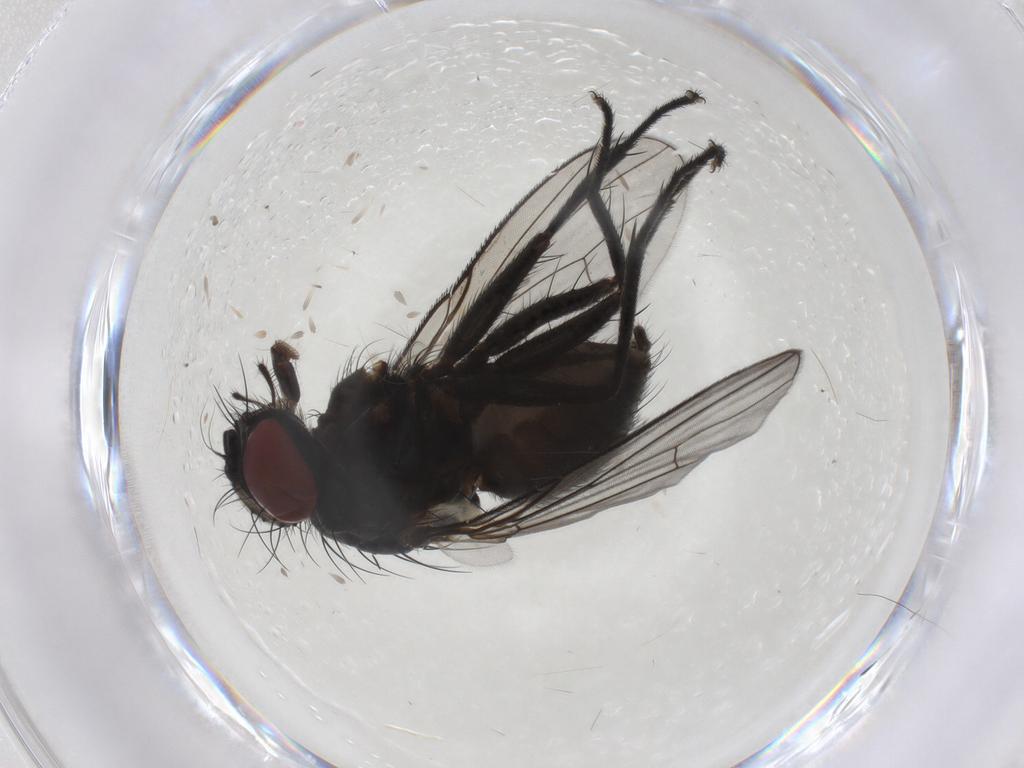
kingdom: Animalia
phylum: Arthropoda
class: Insecta
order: Diptera
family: Muscidae
